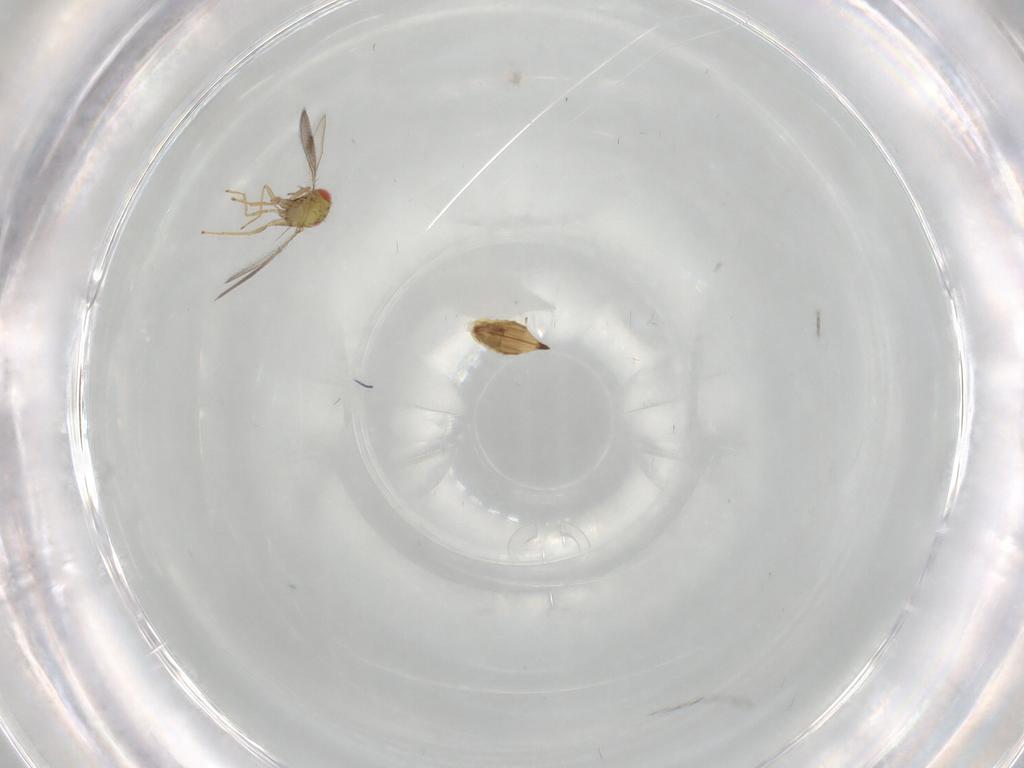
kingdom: Animalia
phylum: Arthropoda
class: Insecta
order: Hymenoptera
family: Eulophidae
